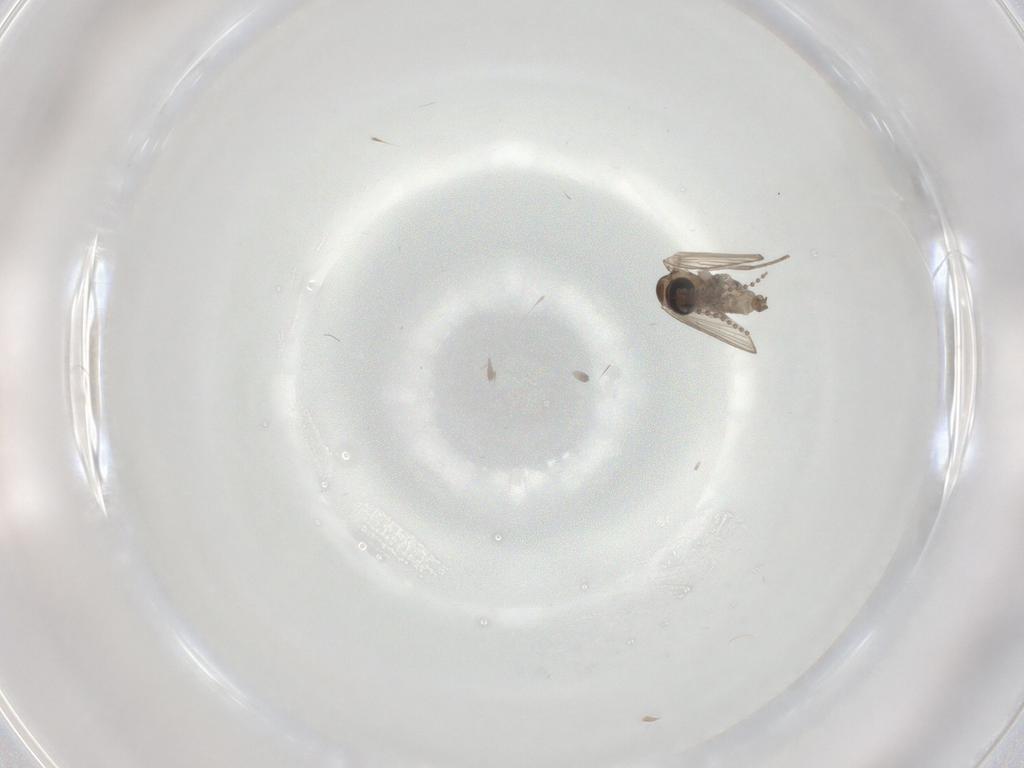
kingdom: Animalia
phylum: Arthropoda
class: Insecta
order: Diptera
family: Psychodidae
